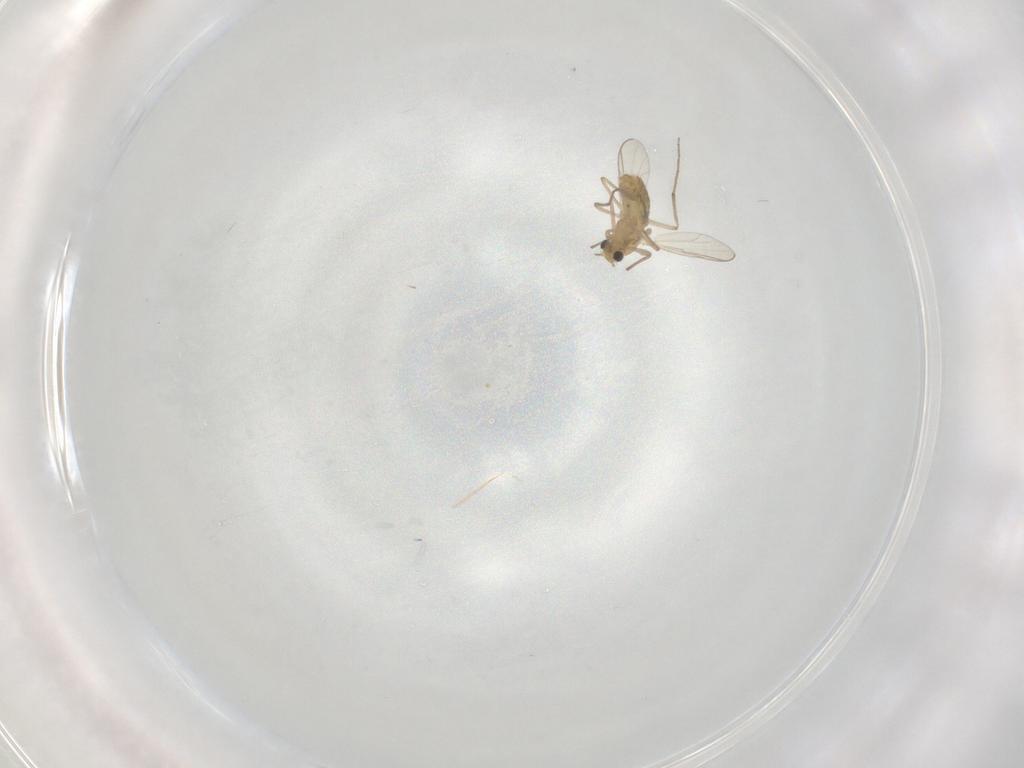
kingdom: Animalia
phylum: Arthropoda
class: Insecta
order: Diptera
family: Chironomidae
